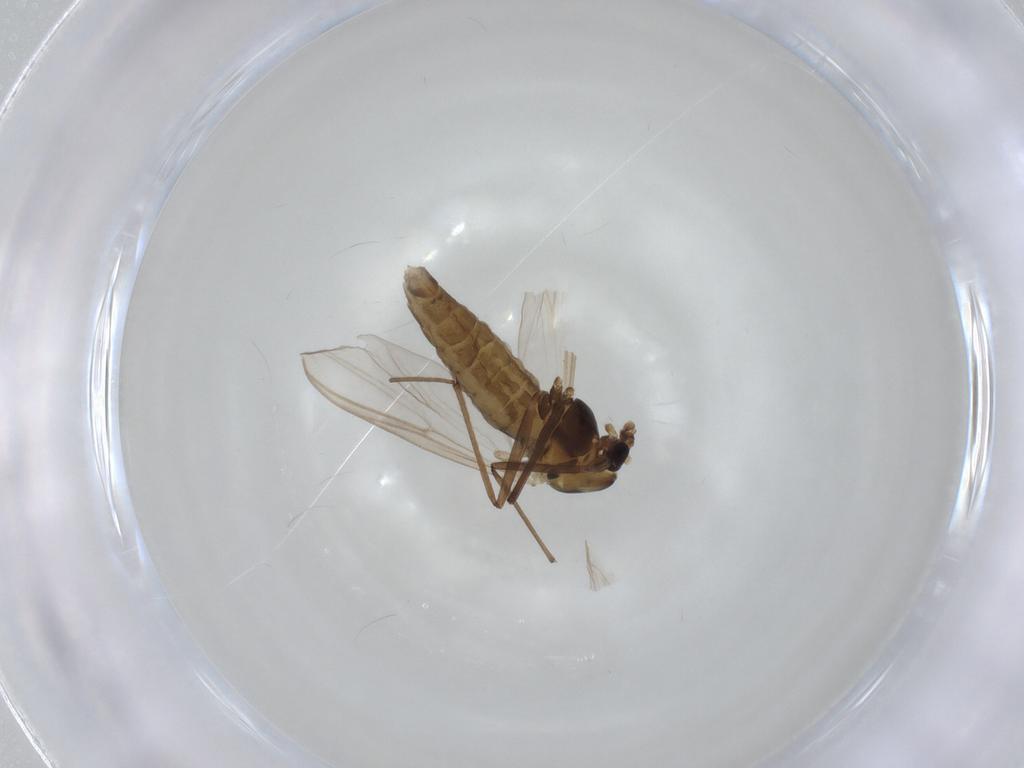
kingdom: Animalia
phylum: Arthropoda
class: Insecta
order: Diptera
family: Chironomidae
